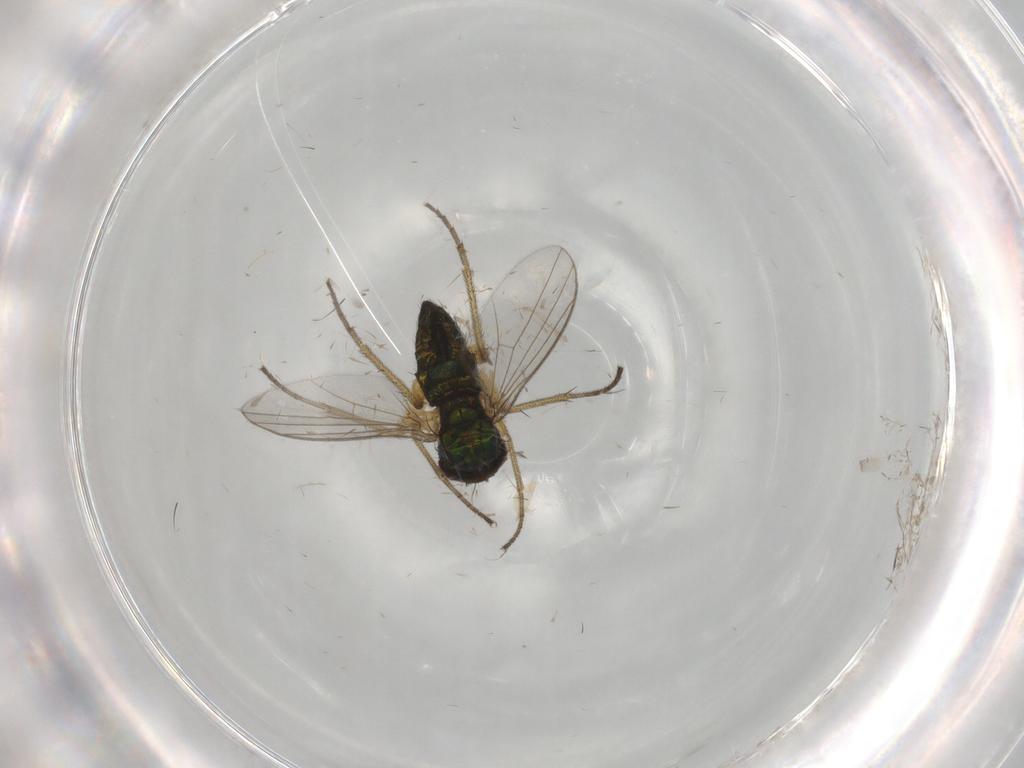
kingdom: Animalia
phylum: Arthropoda
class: Insecta
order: Diptera
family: Dolichopodidae
